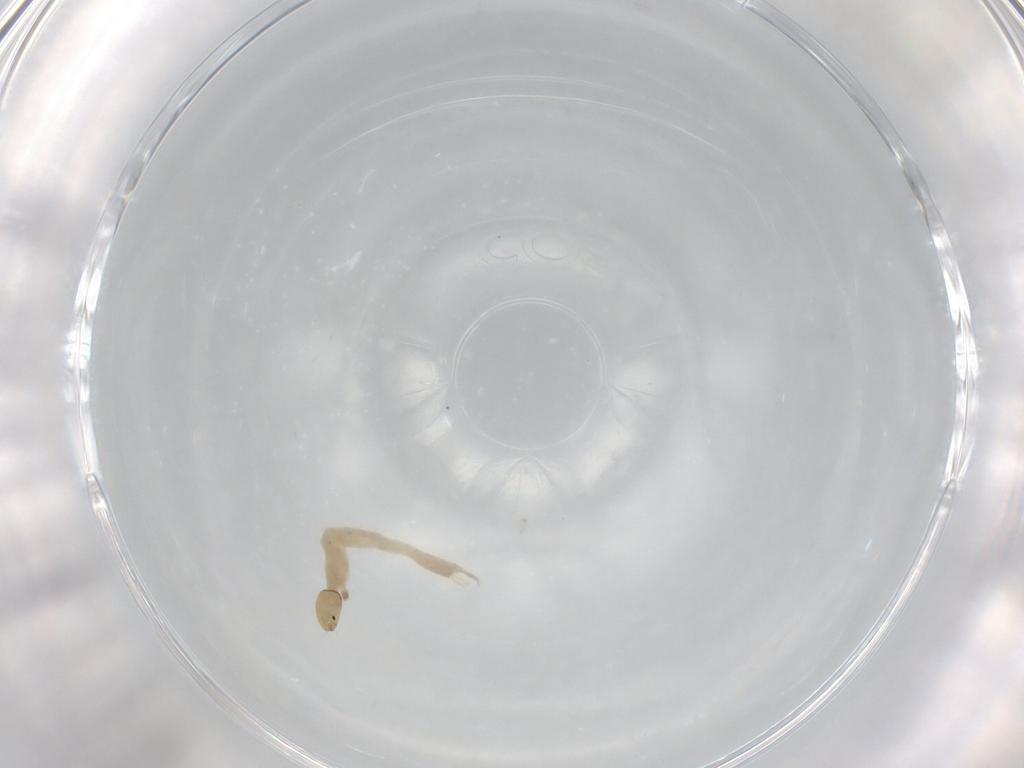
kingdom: Animalia
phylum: Arthropoda
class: Insecta
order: Diptera
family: Chironomidae
